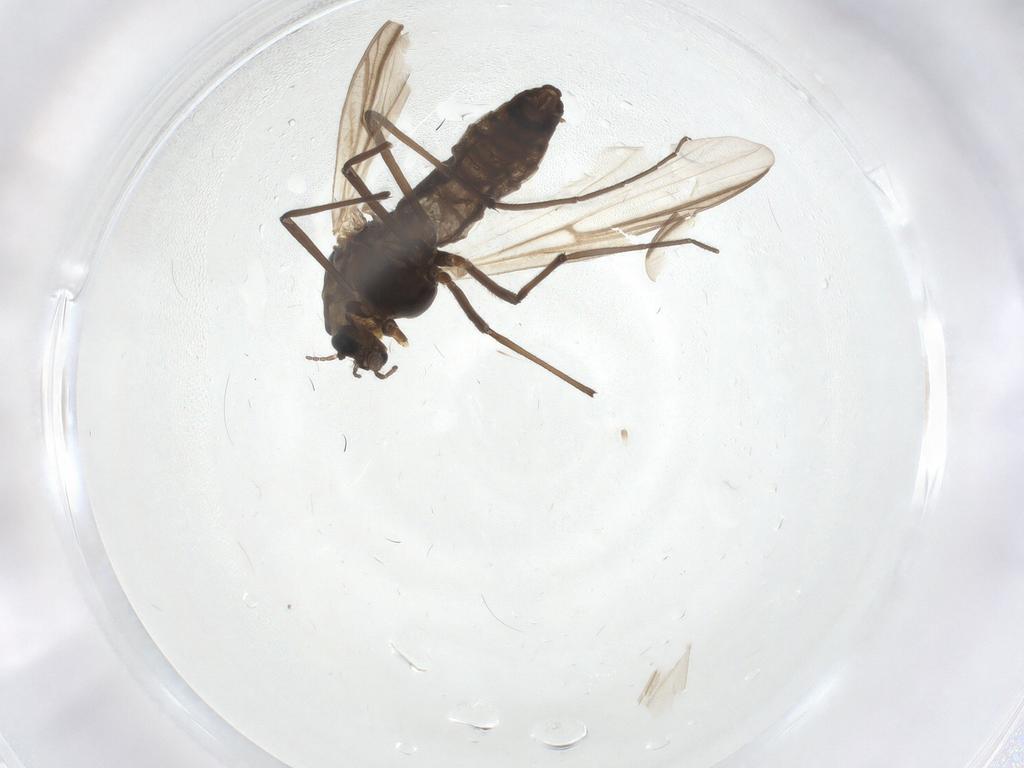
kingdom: Animalia
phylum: Arthropoda
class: Insecta
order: Diptera
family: Chironomidae
